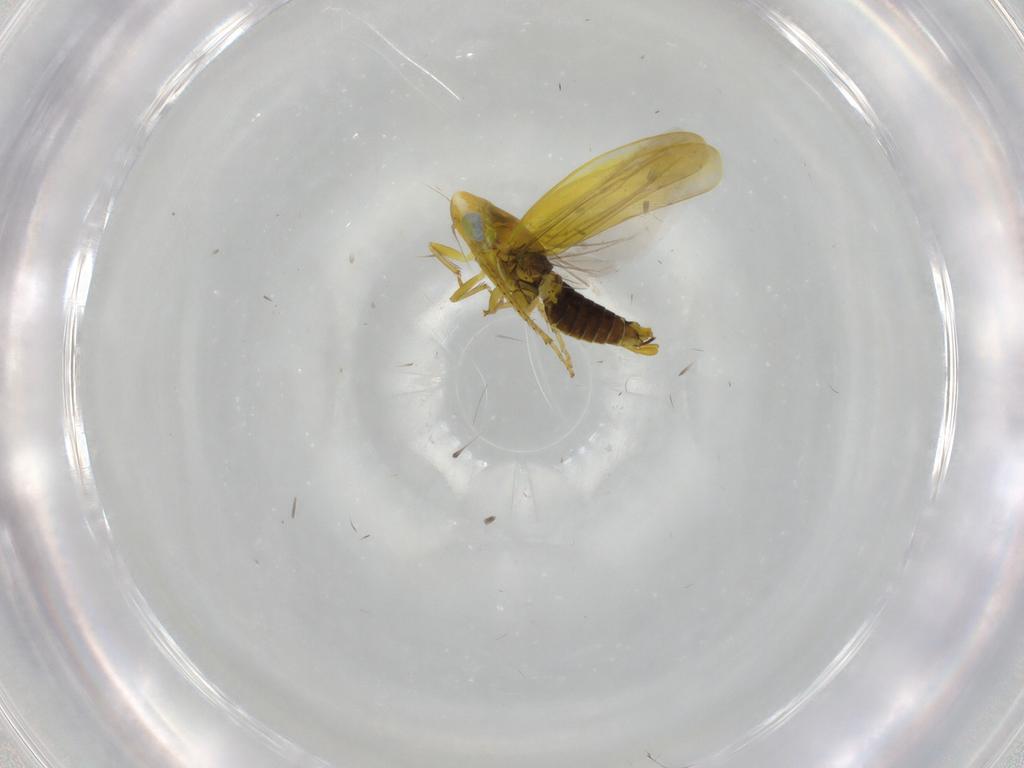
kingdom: Animalia
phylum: Arthropoda
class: Insecta
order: Hemiptera
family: Cicadellidae
